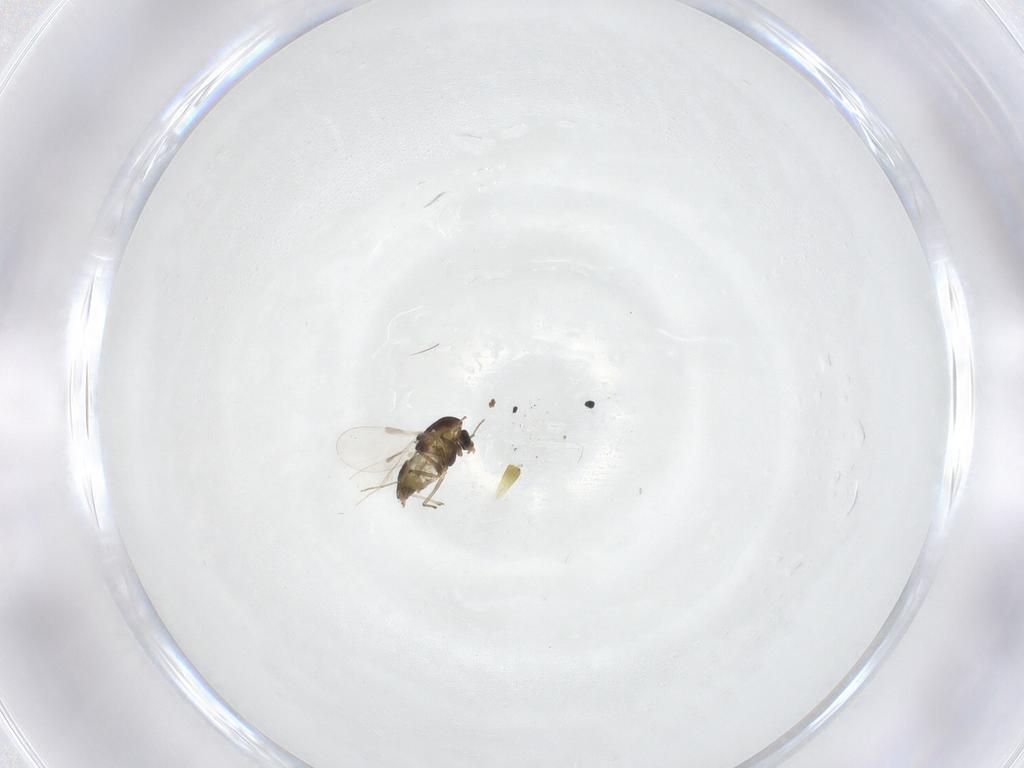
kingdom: Animalia
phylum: Arthropoda
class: Insecta
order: Diptera
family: Chironomidae
